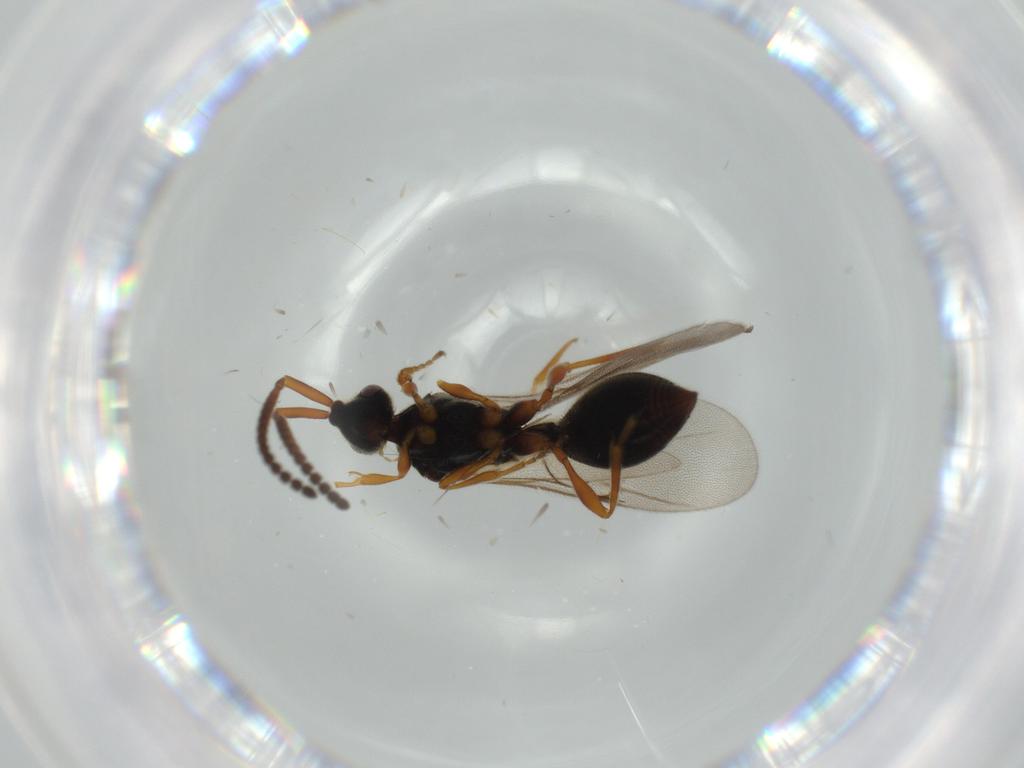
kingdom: Animalia
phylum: Arthropoda
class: Insecta
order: Hymenoptera
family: Diapriidae
